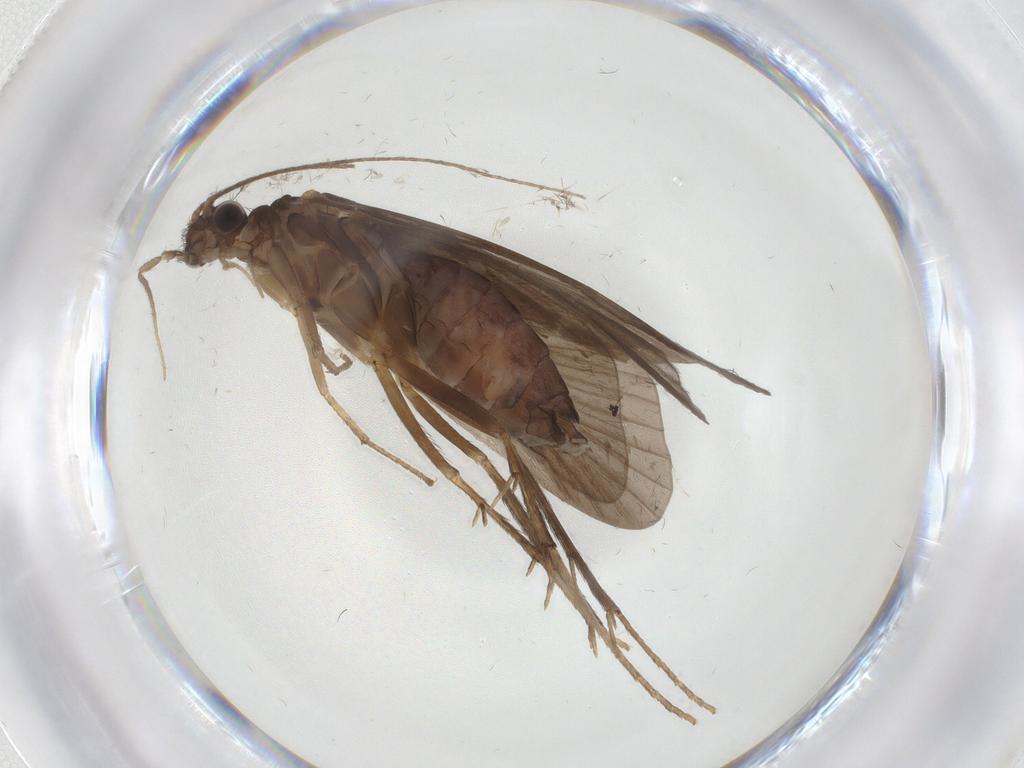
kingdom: Animalia
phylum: Arthropoda
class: Insecta
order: Trichoptera
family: Hydropsychidae
